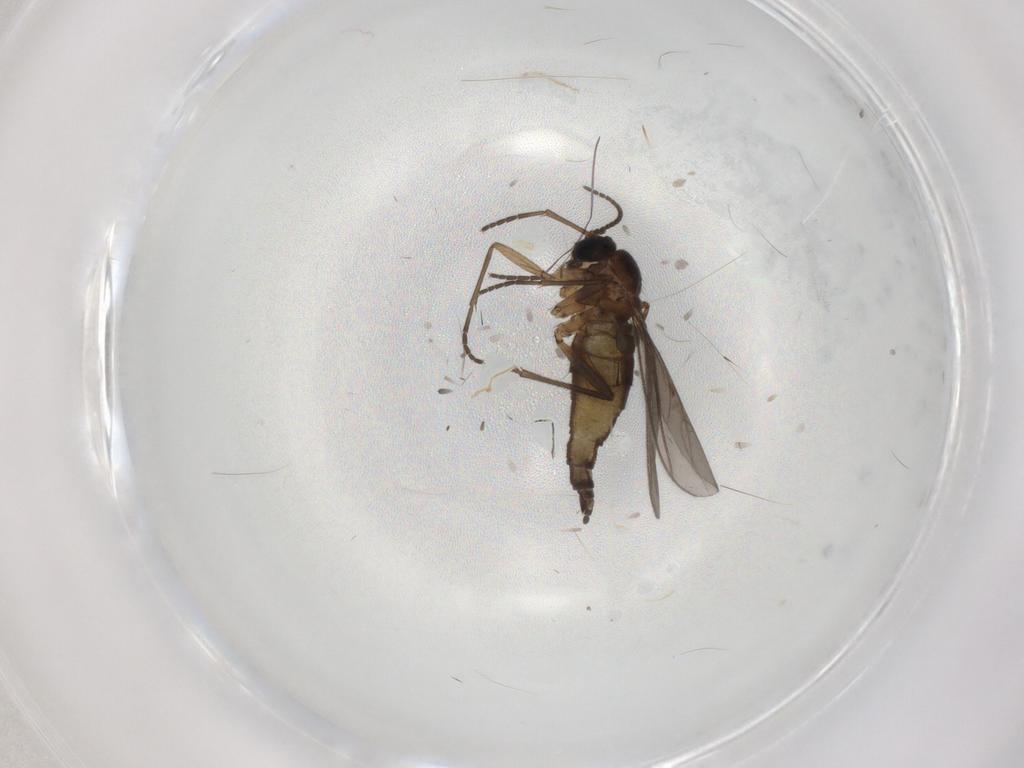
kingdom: Animalia
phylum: Arthropoda
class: Insecta
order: Diptera
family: Sciaridae
